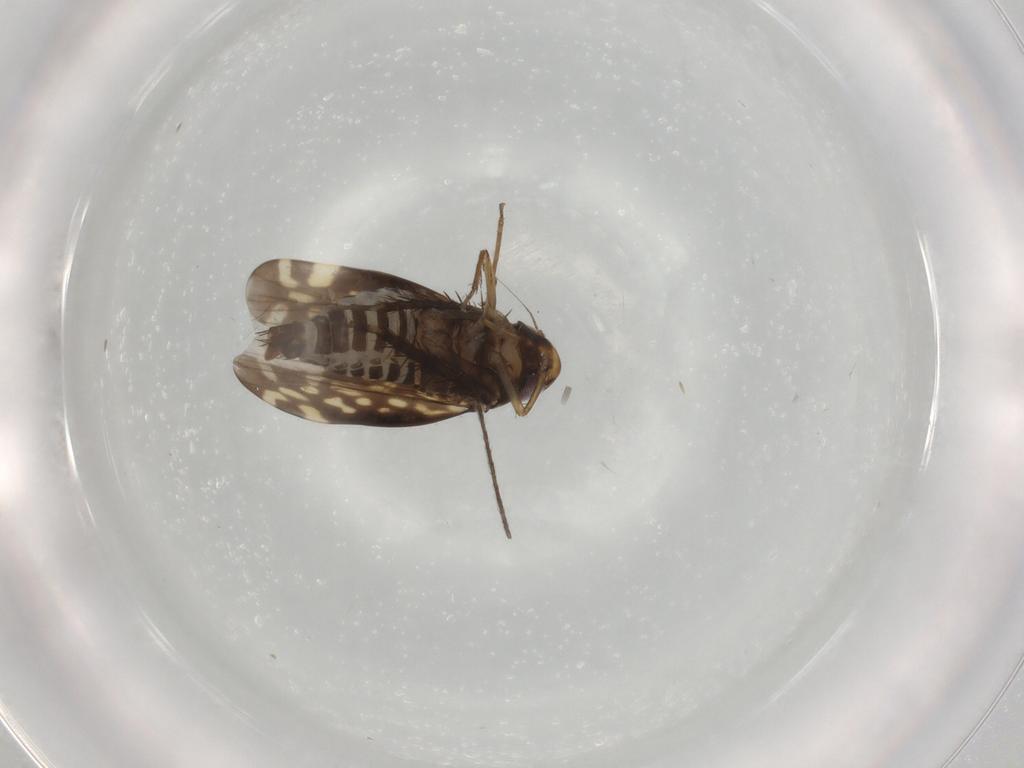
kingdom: Animalia
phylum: Arthropoda
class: Insecta
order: Hemiptera
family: Cicadellidae
